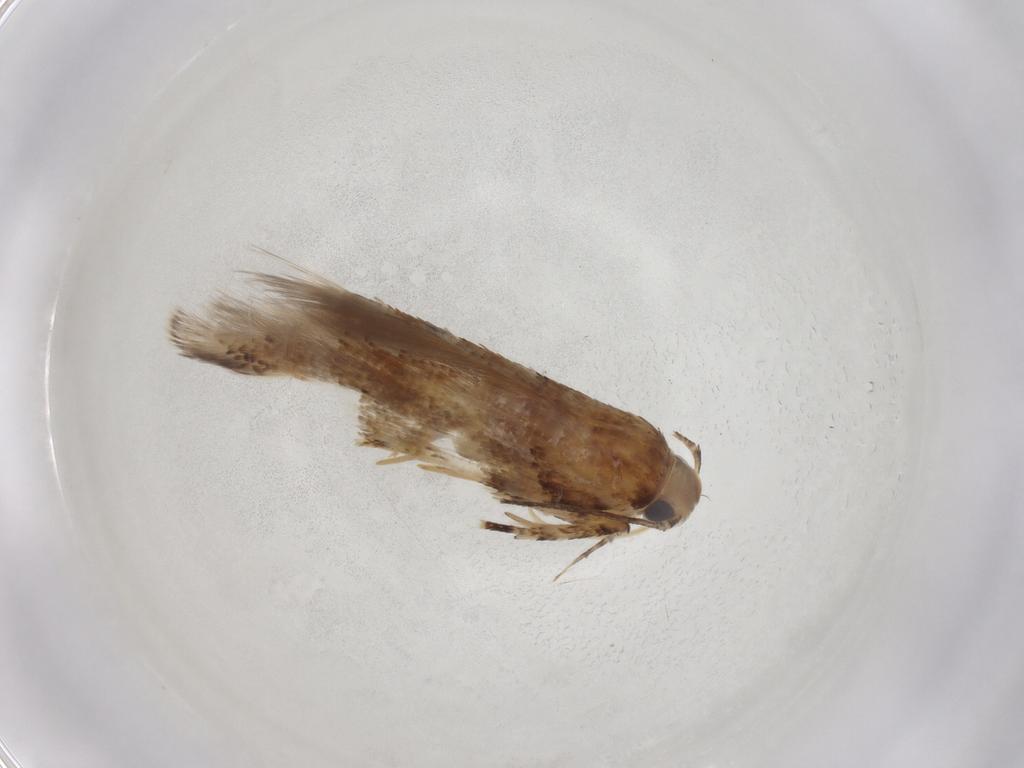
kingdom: Animalia
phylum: Arthropoda
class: Insecta
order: Lepidoptera
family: Gelechiidae
